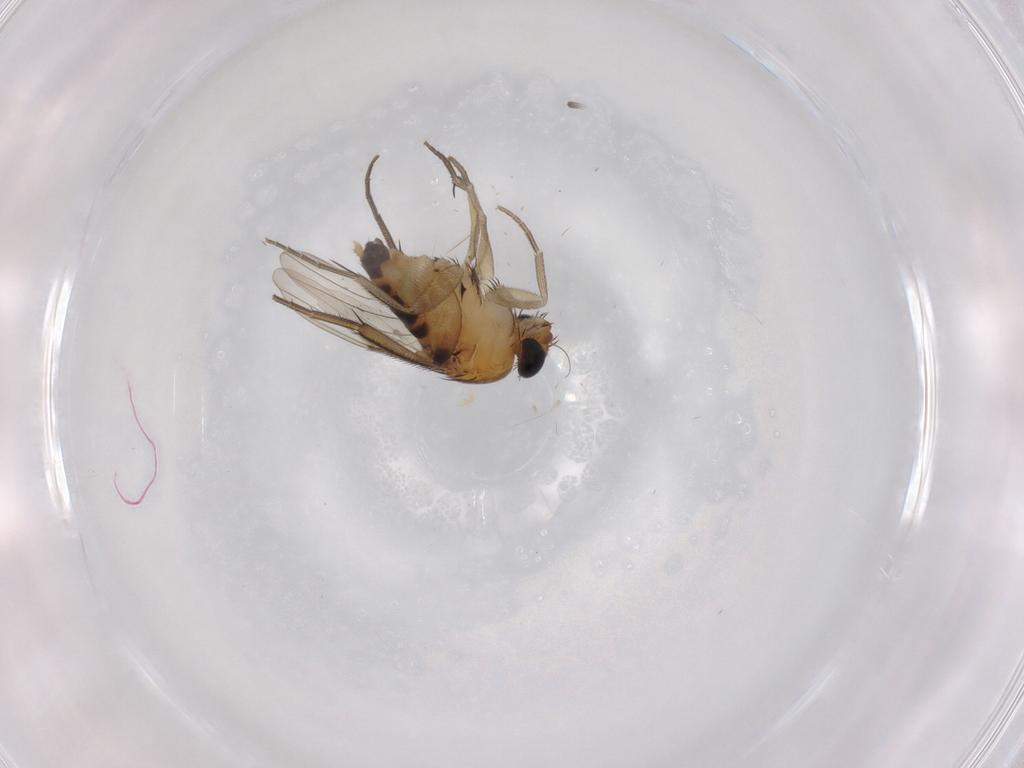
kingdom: Animalia
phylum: Arthropoda
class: Insecta
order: Diptera
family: Phoridae
